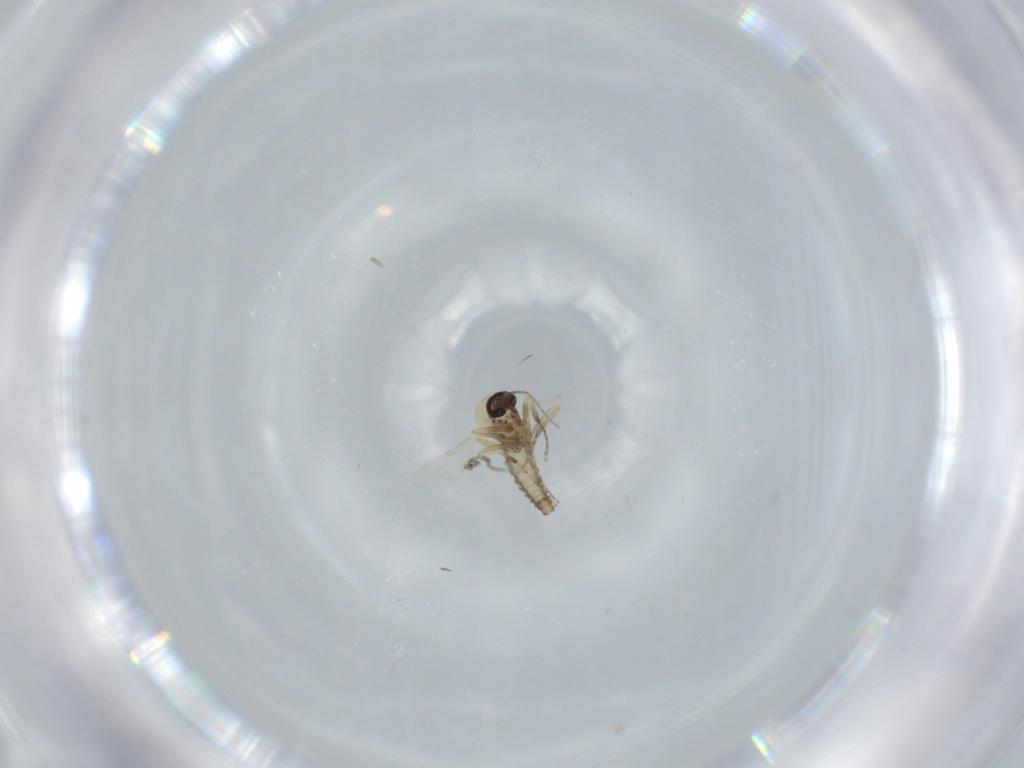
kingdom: Animalia
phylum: Arthropoda
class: Insecta
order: Diptera
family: Ceratopogonidae
